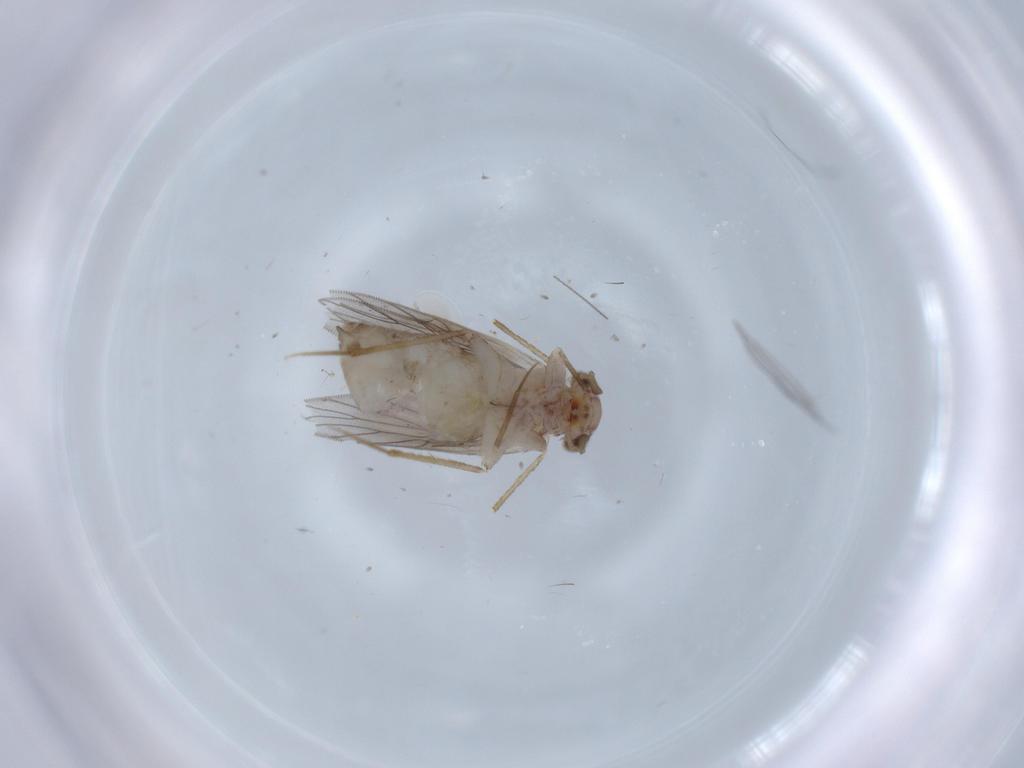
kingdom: Animalia
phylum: Arthropoda
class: Insecta
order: Psocodea
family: Lepidopsocidae
